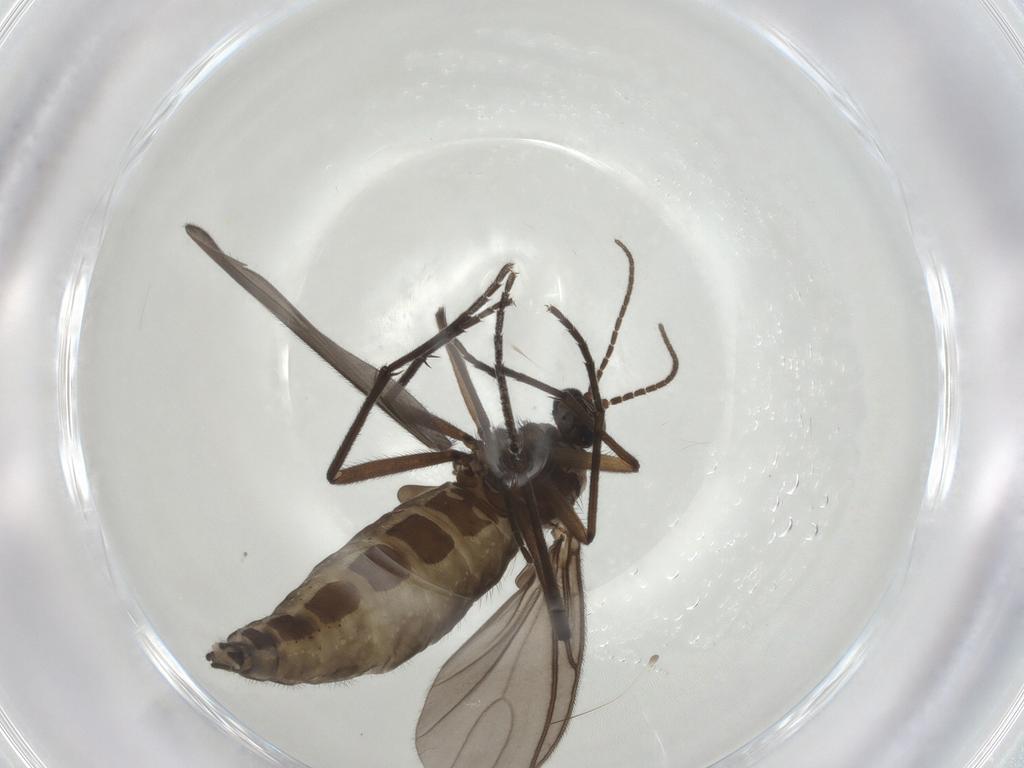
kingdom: Animalia
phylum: Arthropoda
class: Insecta
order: Diptera
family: Sciaridae
